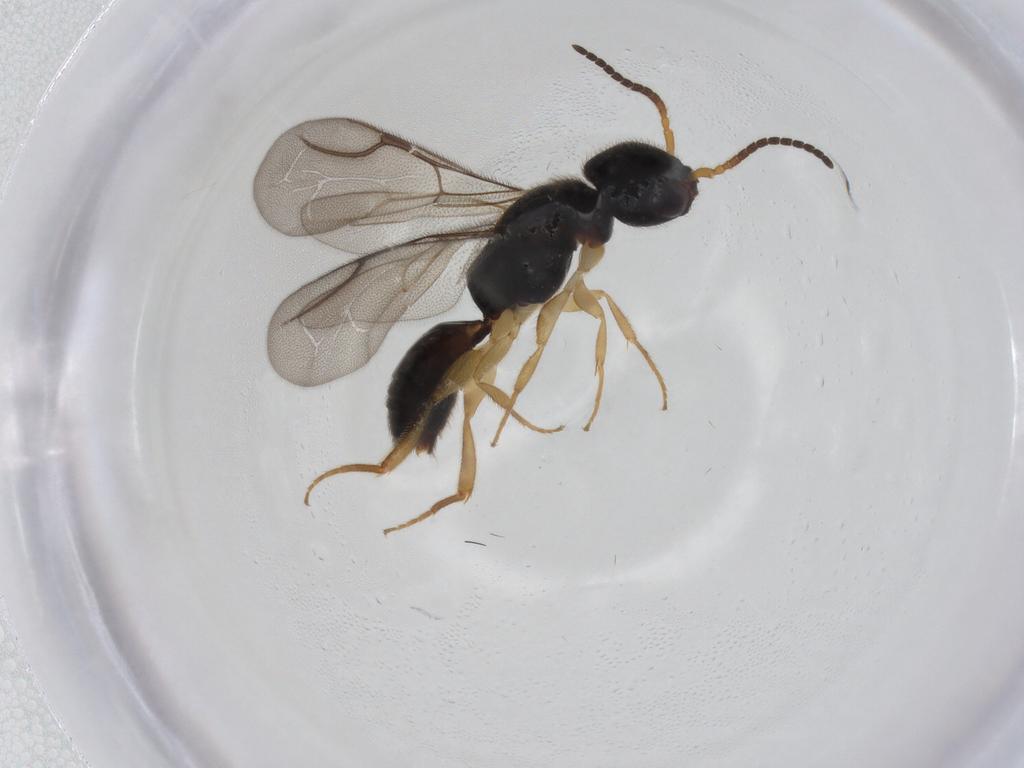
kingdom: Animalia
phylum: Arthropoda
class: Insecta
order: Hymenoptera
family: Bethylidae
